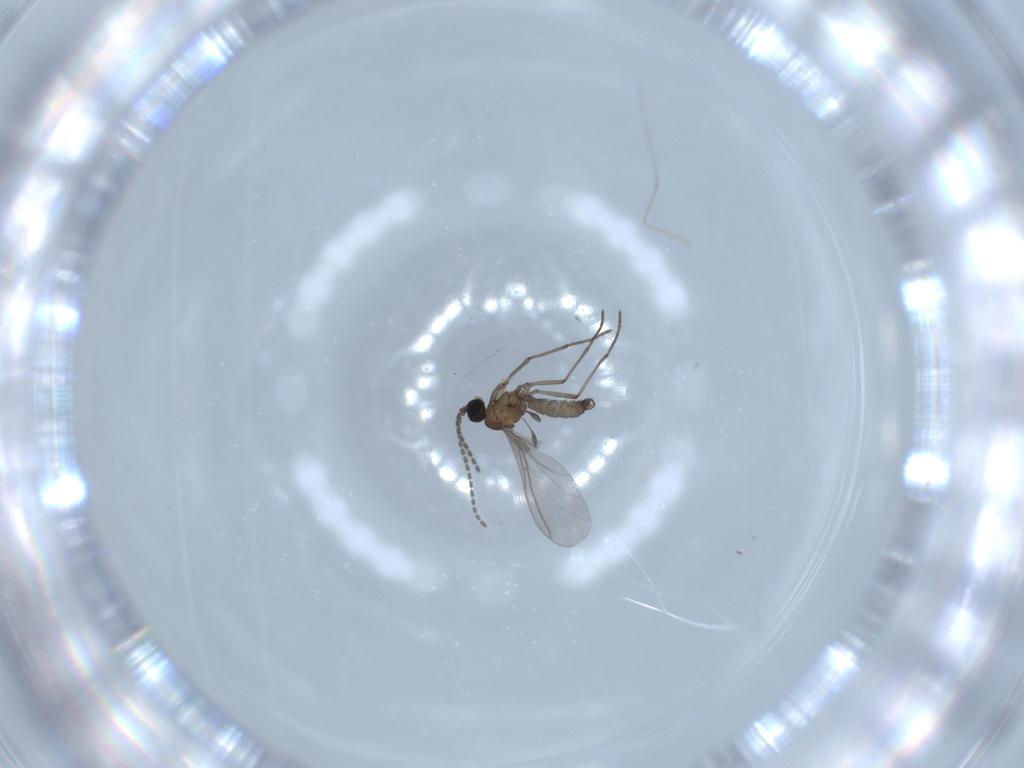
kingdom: Animalia
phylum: Arthropoda
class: Insecta
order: Diptera
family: Sciaridae
